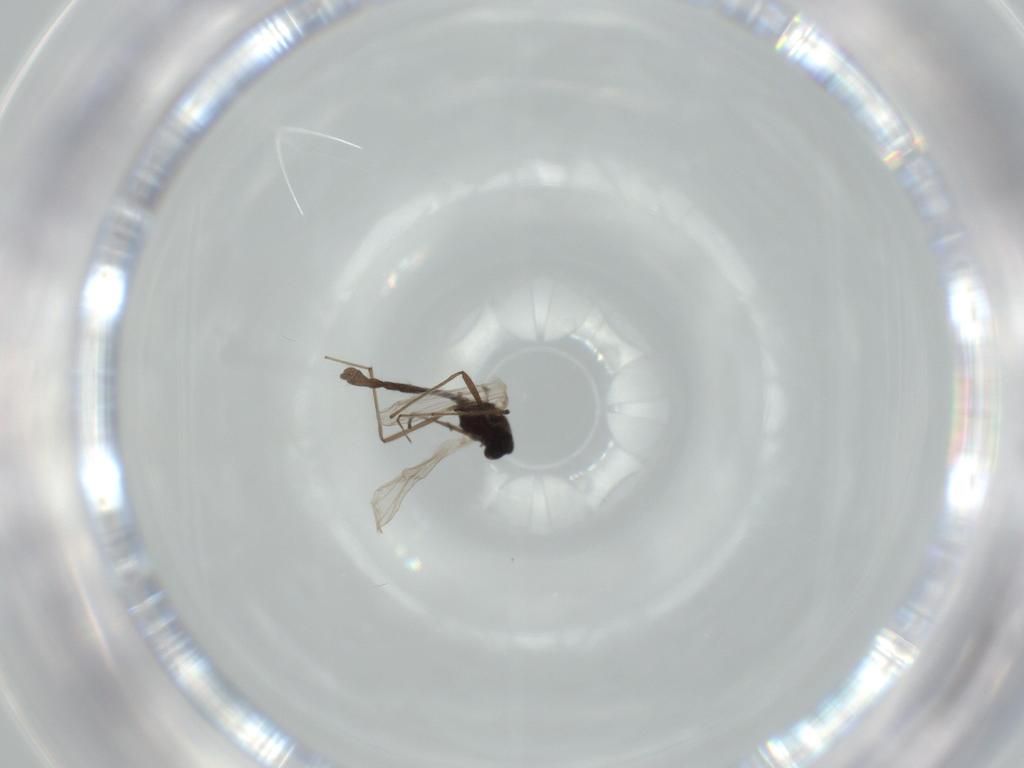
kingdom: Animalia
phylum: Arthropoda
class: Insecta
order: Diptera
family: Chironomidae
